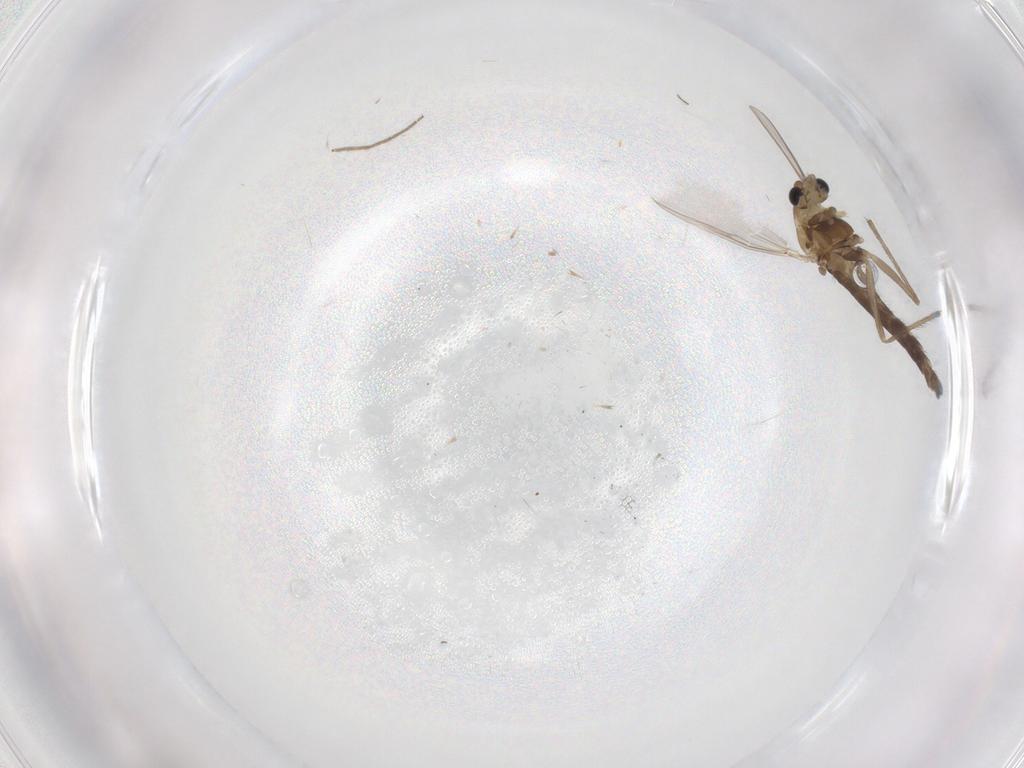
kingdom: Animalia
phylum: Arthropoda
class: Insecta
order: Diptera
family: Chironomidae
